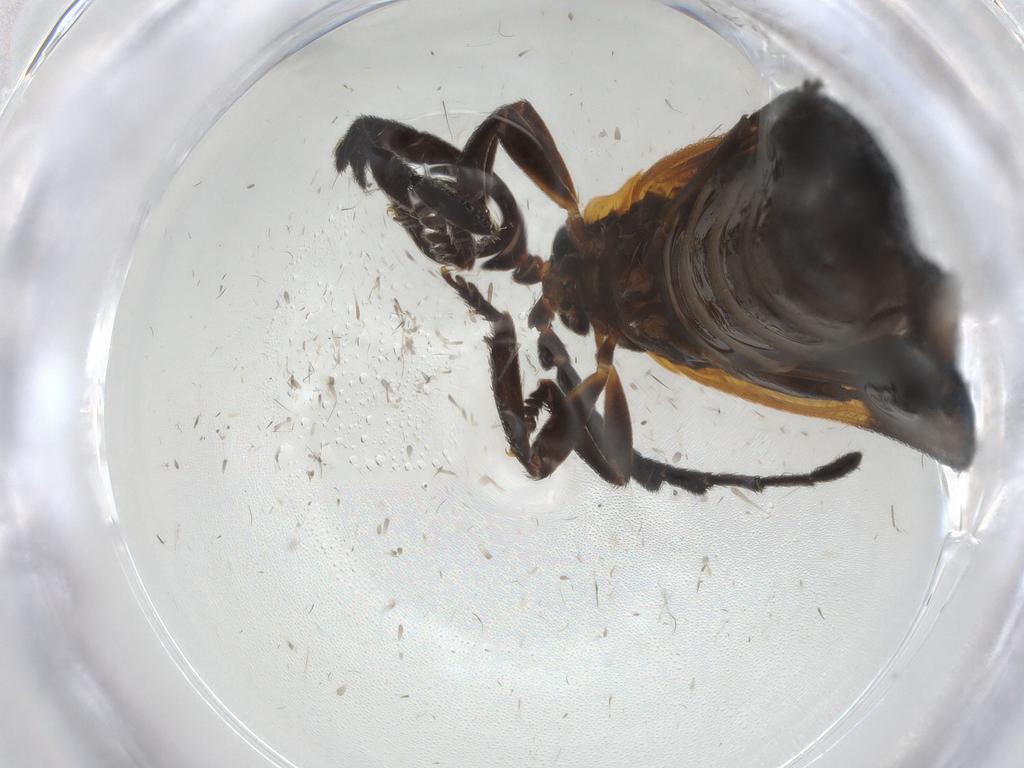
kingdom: Animalia
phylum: Arthropoda
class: Insecta
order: Coleoptera
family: Lycidae
